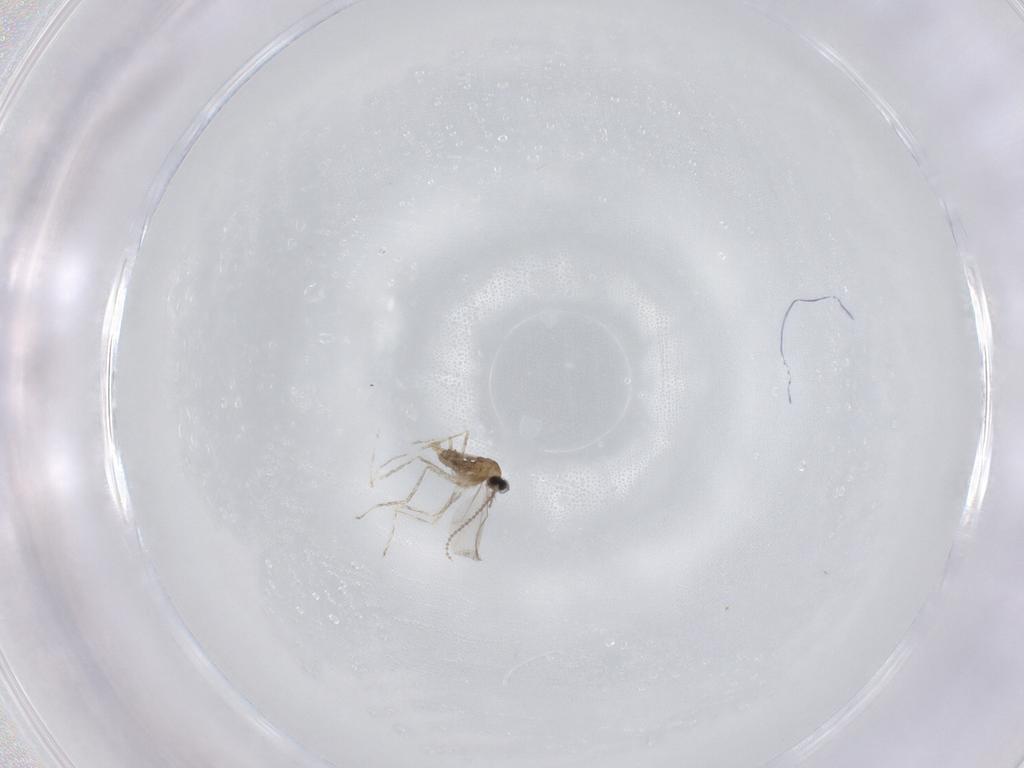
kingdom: Animalia
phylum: Arthropoda
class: Insecta
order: Diptera
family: Cecidomyiidae
